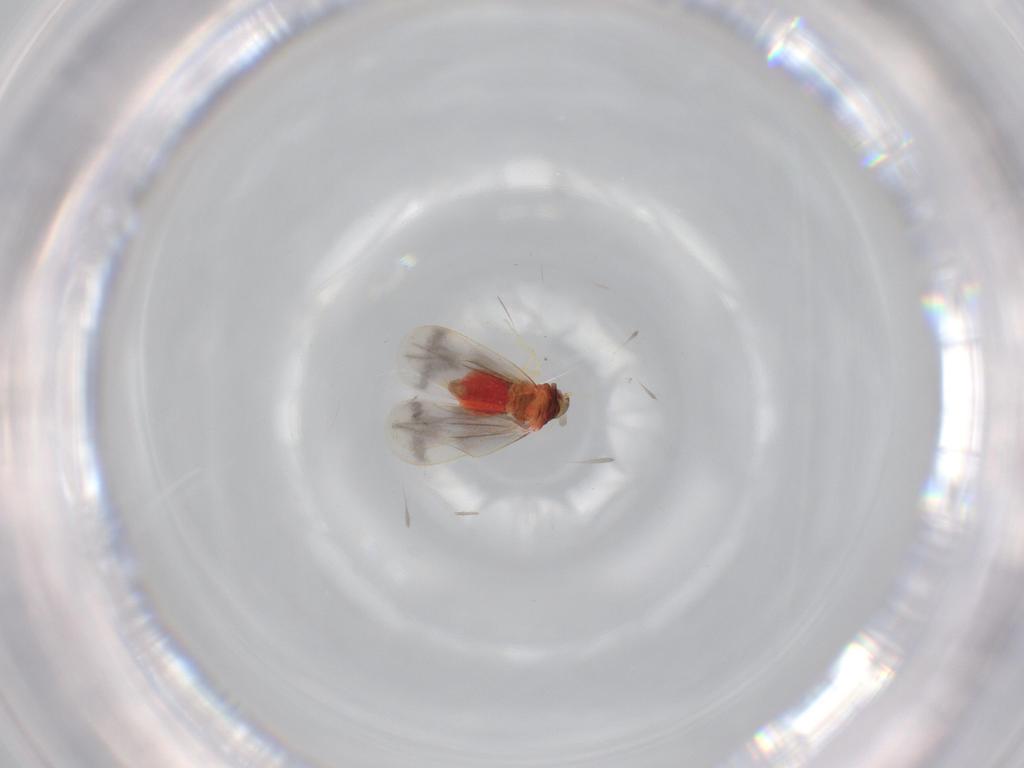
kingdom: Animalia
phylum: Arthropoda
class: Insecta
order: Hemiptera
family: Aleyrodidae
